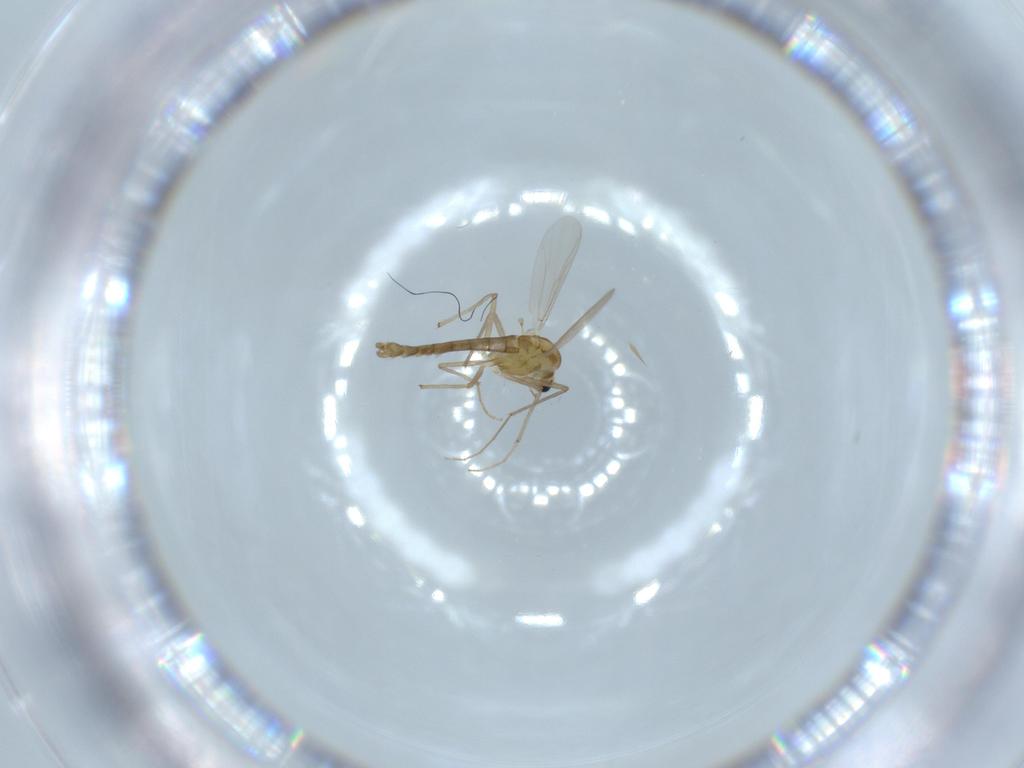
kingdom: Animalia
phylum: Arthropoda
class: Insecta
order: Diptera
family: Chironomidae
